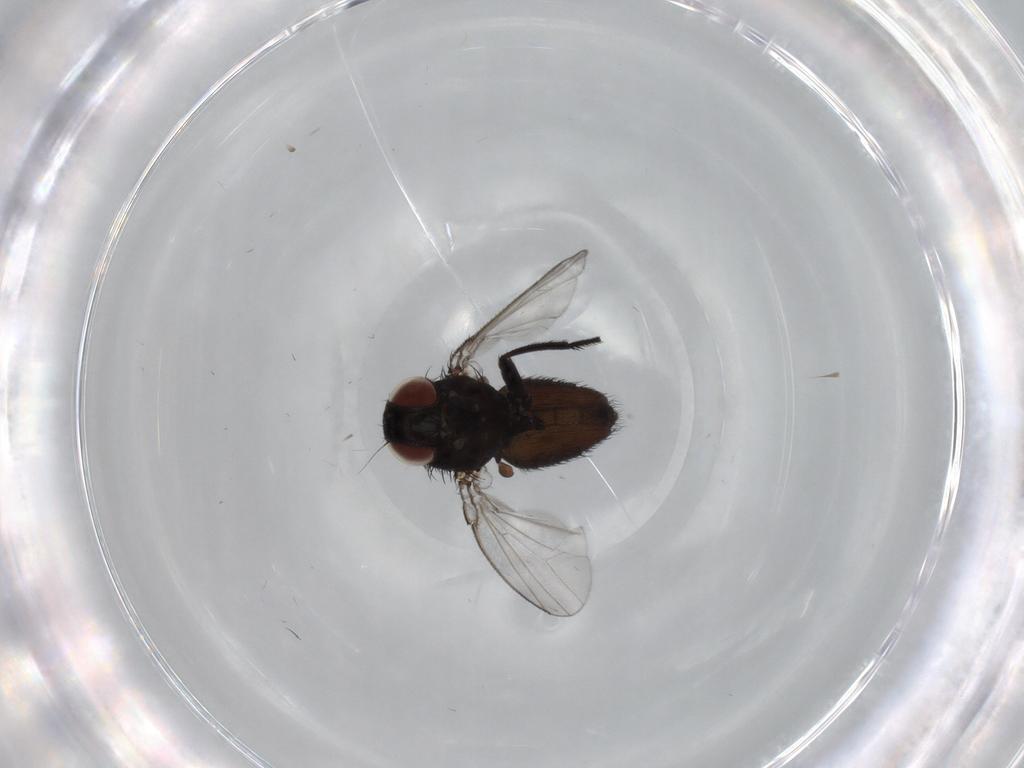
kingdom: Animalia
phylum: Arthropoda
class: Insecta
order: Diptera
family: Milichiidae
